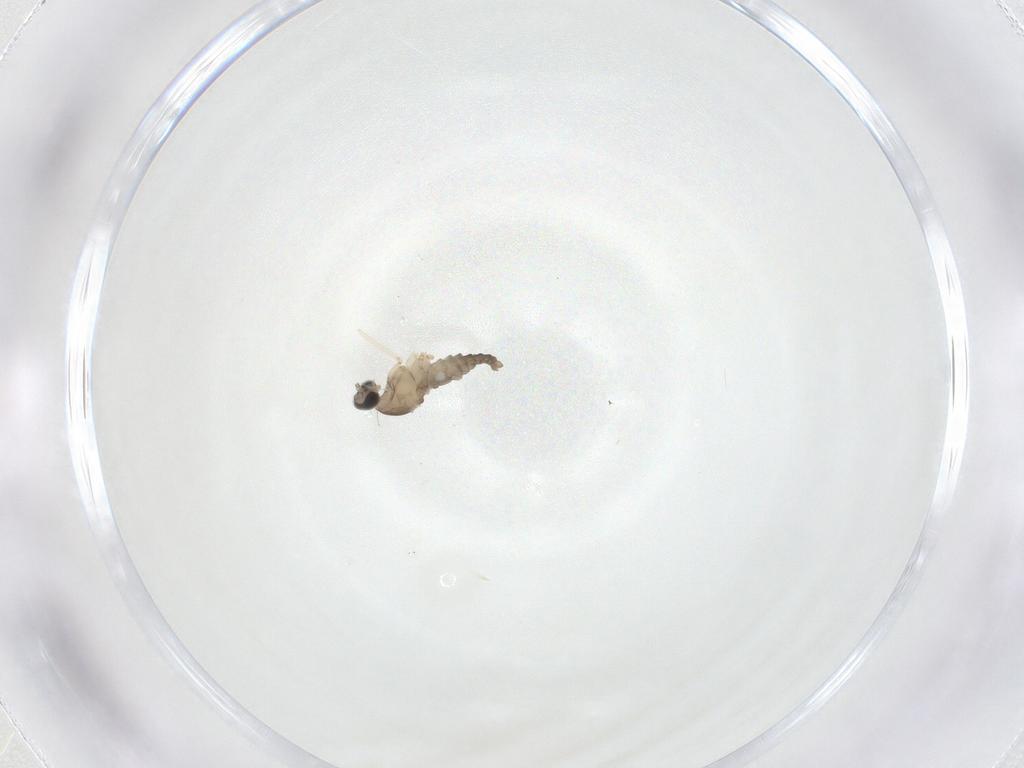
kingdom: Animalia
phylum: Arthropoda
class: Insecta
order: Diptera
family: Cecidomyiidae
